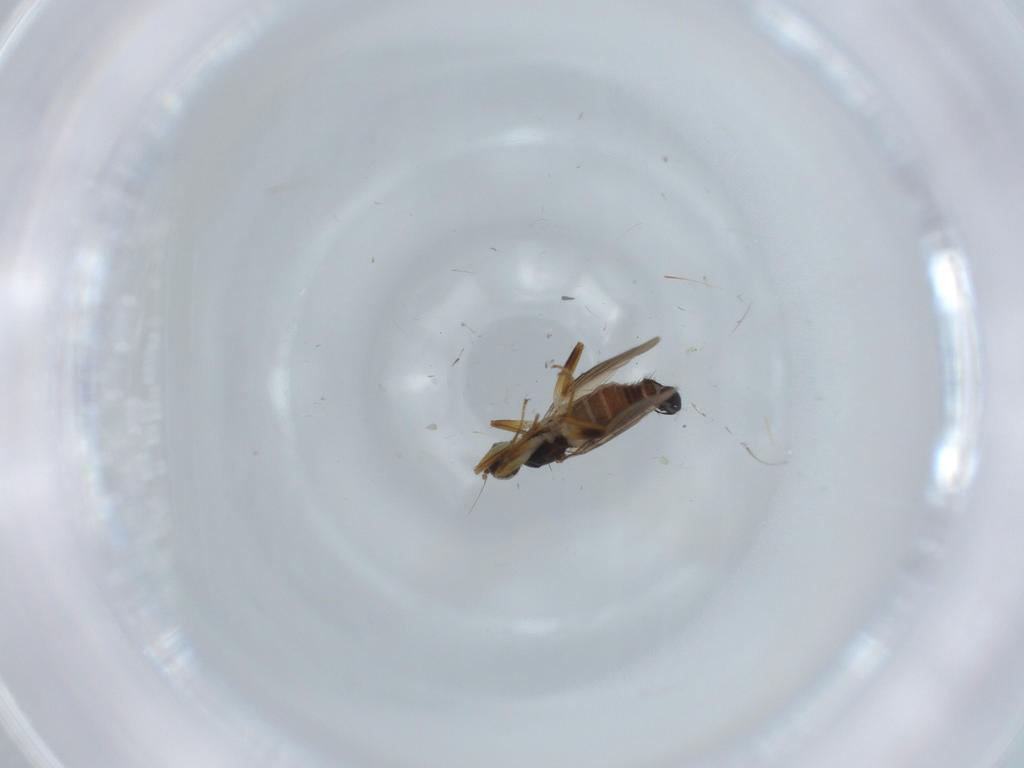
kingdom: Animalia
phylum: Arthropoda
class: Insecta
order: Diptera
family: Hybotidae
